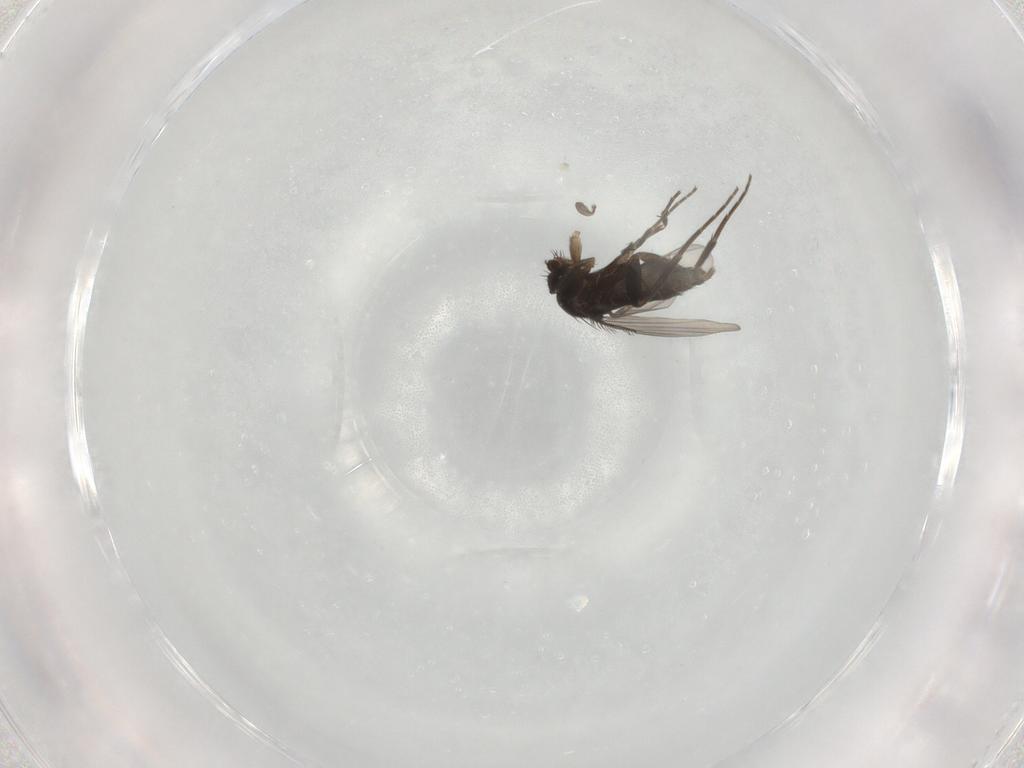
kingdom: Animalia
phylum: Arthropoda
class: Insecta
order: Diptera
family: Phoridae
